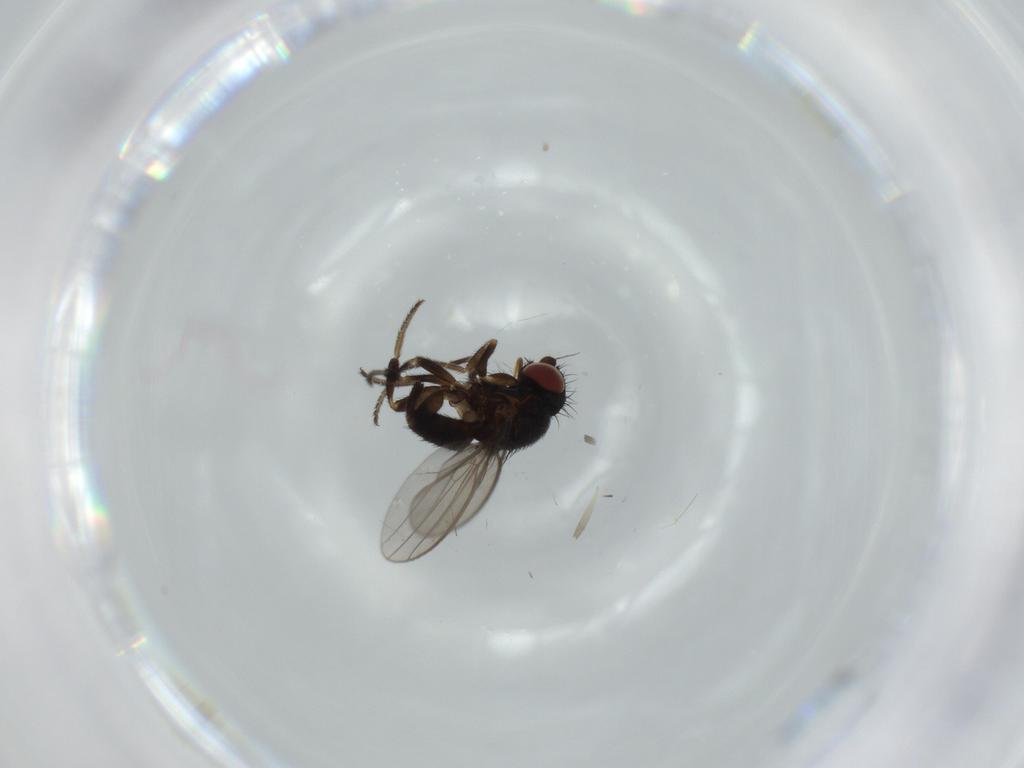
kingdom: Animalia
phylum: Arthropoda
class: Insecta
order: Diptera
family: Milichiidae
